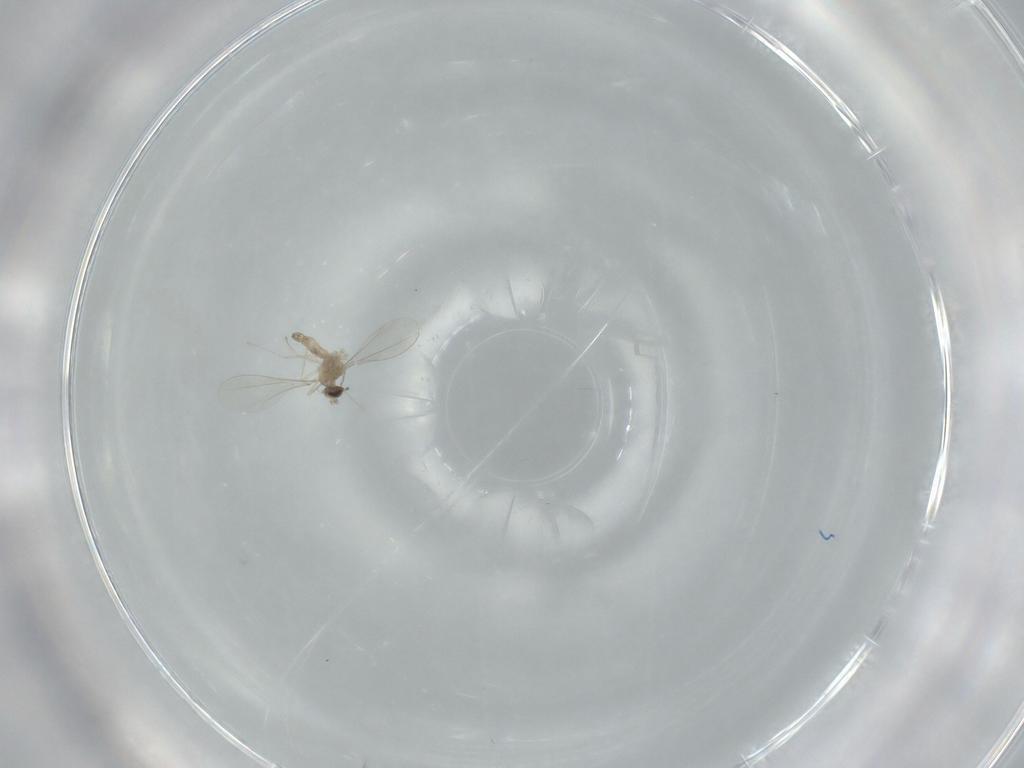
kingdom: Animalia
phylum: Arthropoda
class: Insecta
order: Diptera
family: Cecidomyiidae
